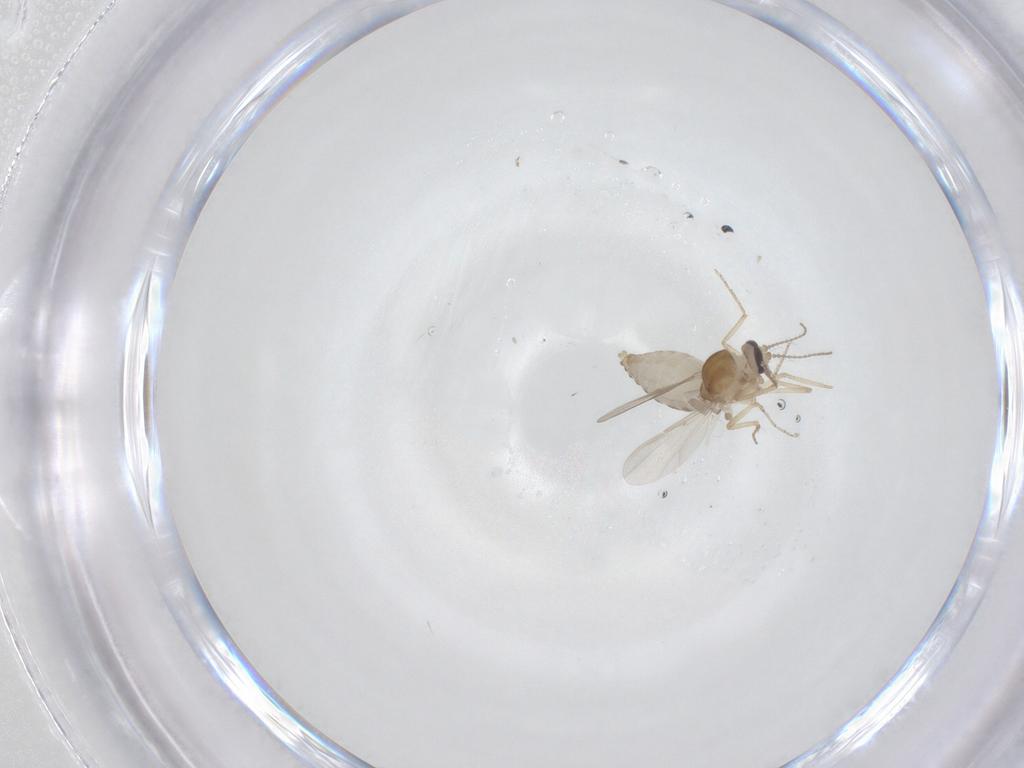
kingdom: Animalia
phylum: Arthropoda
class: Insecta
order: Diptera
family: Ceratopogonidae
